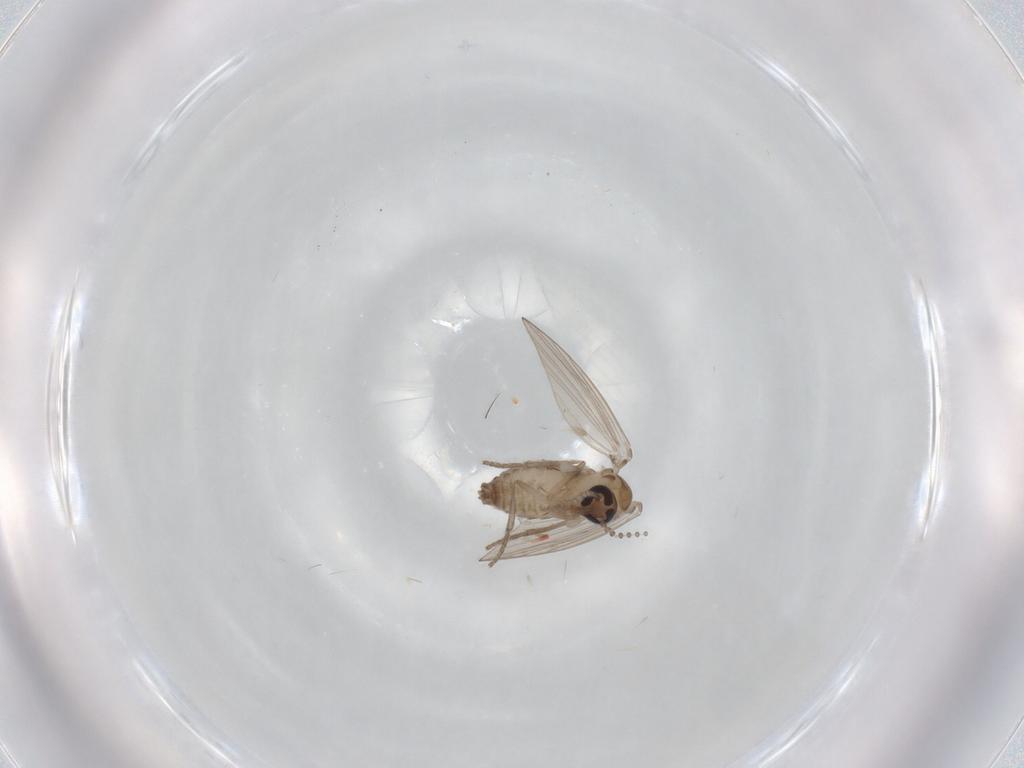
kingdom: Animalia
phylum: Arthropoda
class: Insecta
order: Diptera
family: Psychodidae
